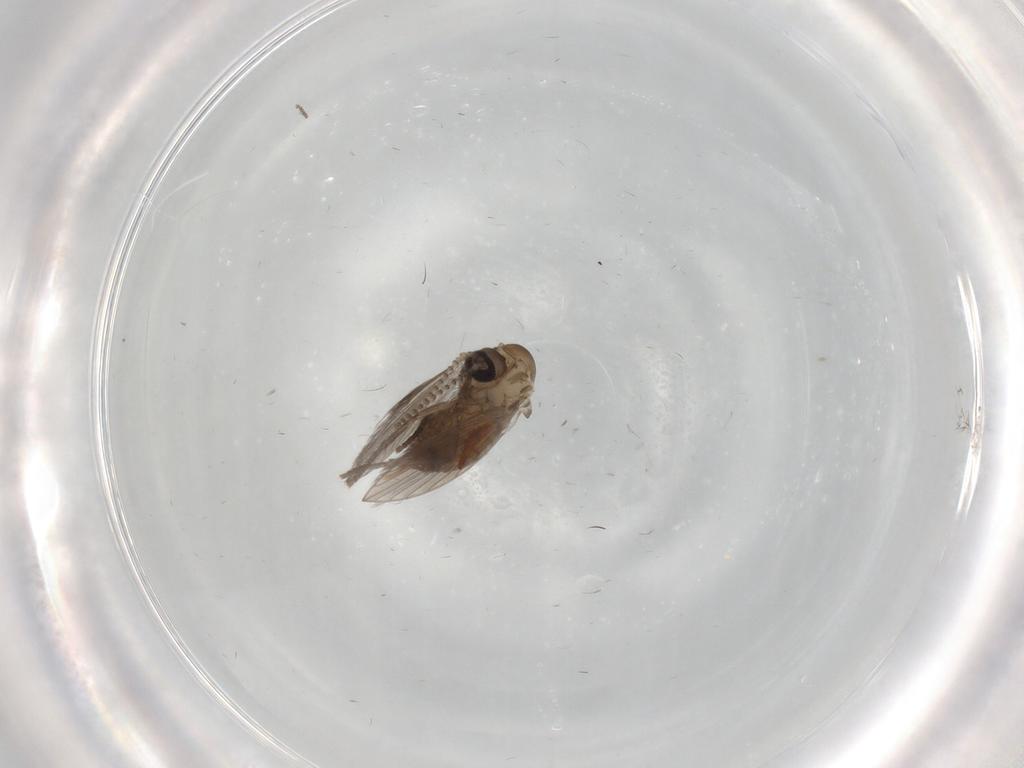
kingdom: Animalia
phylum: Arthropoda
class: Insecta
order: Diptera
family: Psychodidae
